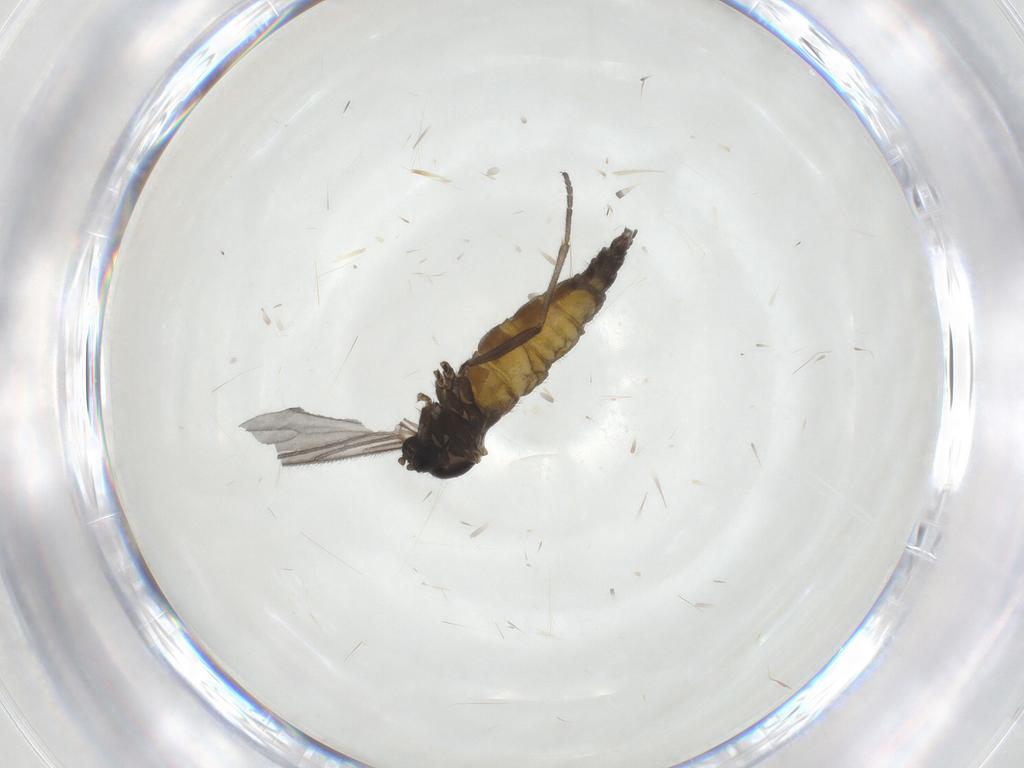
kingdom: Animalia
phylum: Arthropoda
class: Insecta
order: Diptera
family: Sciaridae
